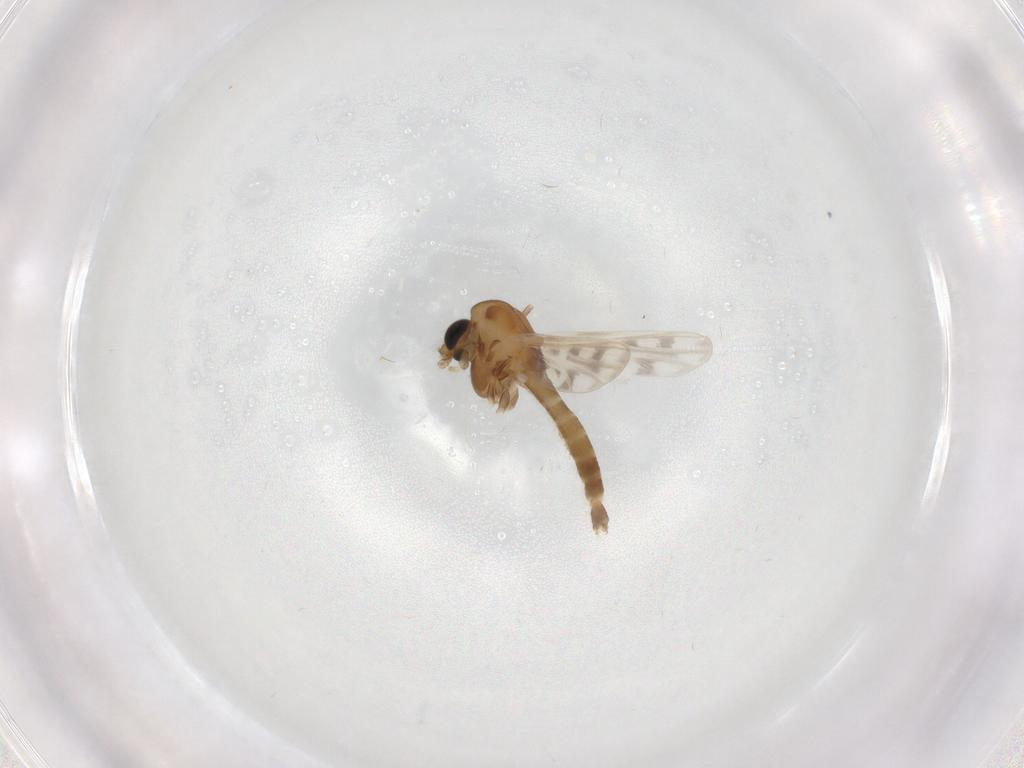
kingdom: Animalia
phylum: Arthropoda
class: Insecta
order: Diptera
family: Chironomidae
